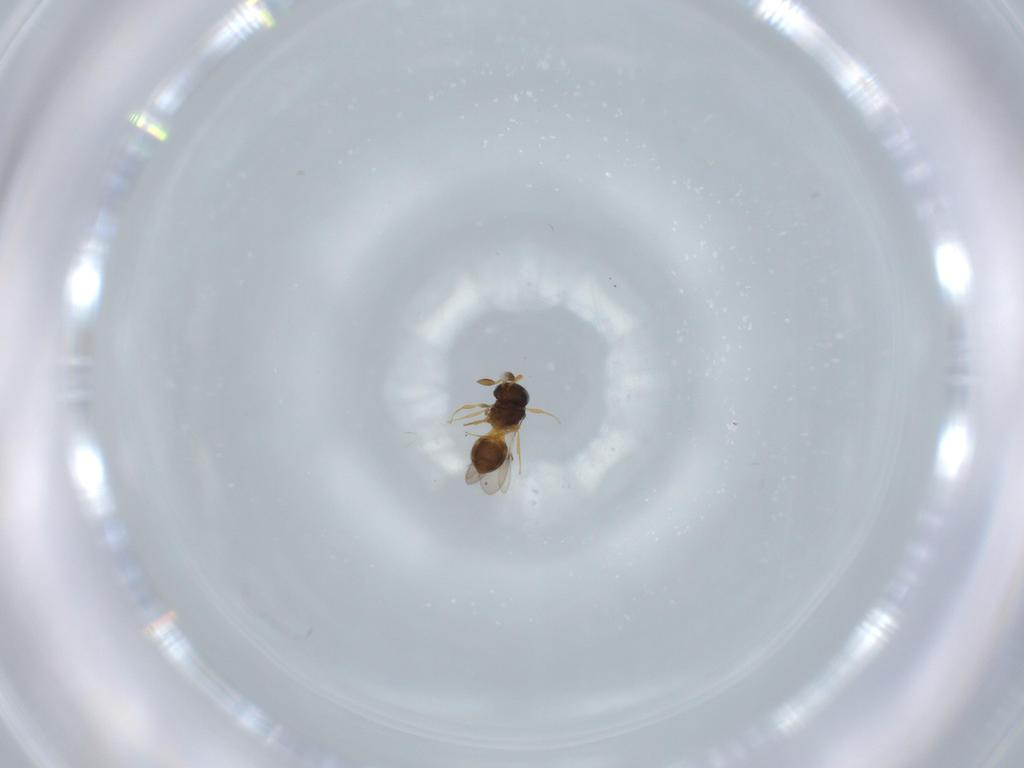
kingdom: Animalia
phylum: Arthropoda
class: Insecta
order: Hymenoptera
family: Scelionidae
